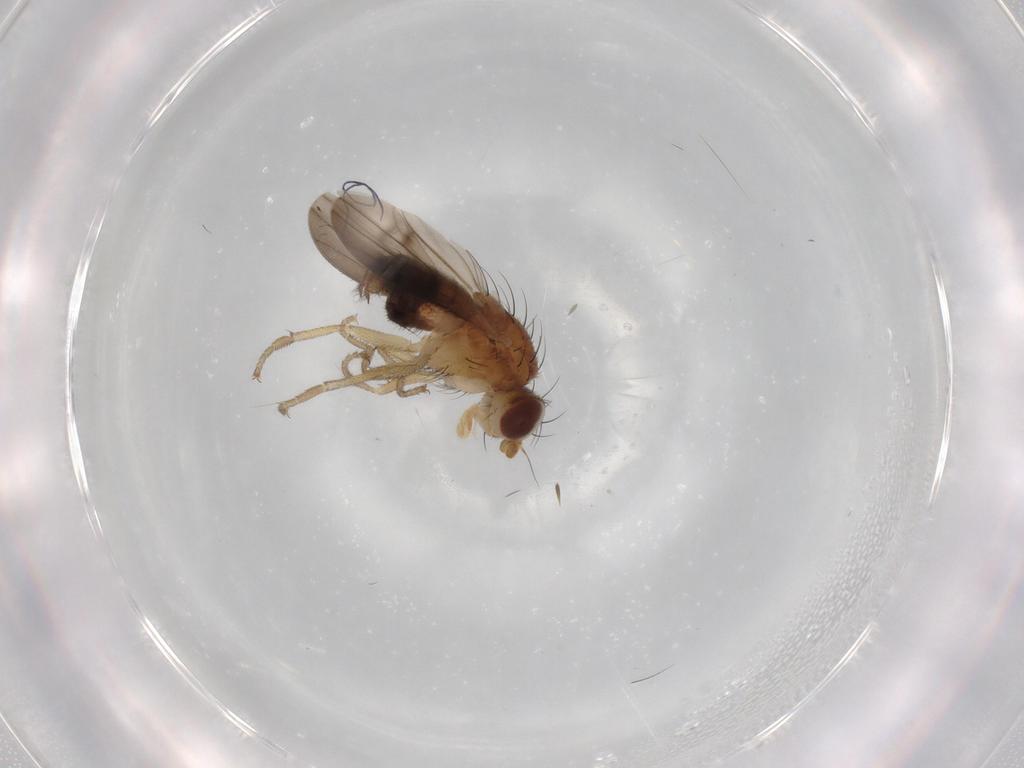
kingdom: Animalia
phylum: Arthropoda
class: Insecta
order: Diptera
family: Heleomyzidae
